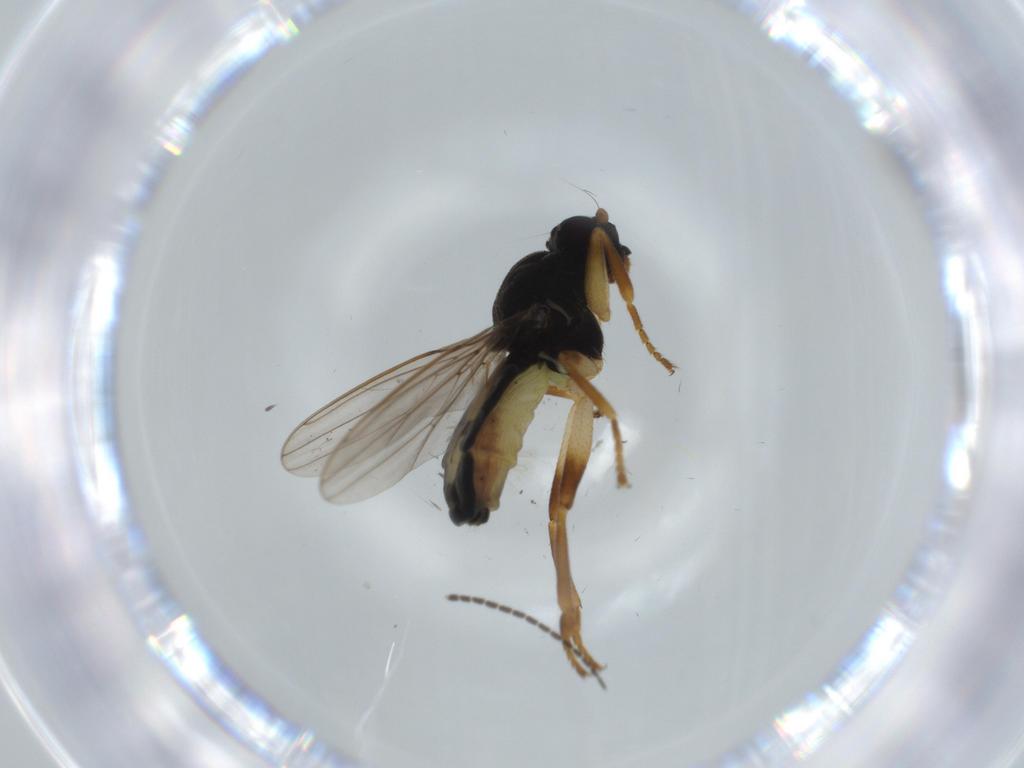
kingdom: Animalia
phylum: Arthropoda
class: Insecta
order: Diptera
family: Sphaeroceridae
